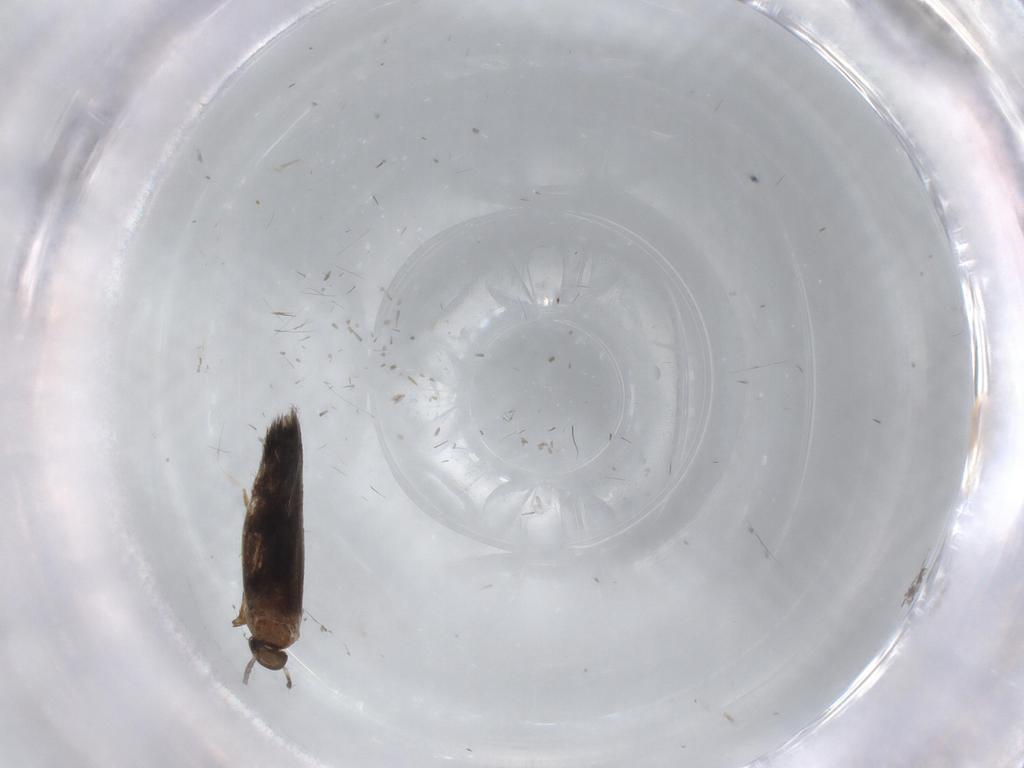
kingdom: Animalia
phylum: Arthropoda
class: Insecta
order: Lepidoptera
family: Heliozelidae
